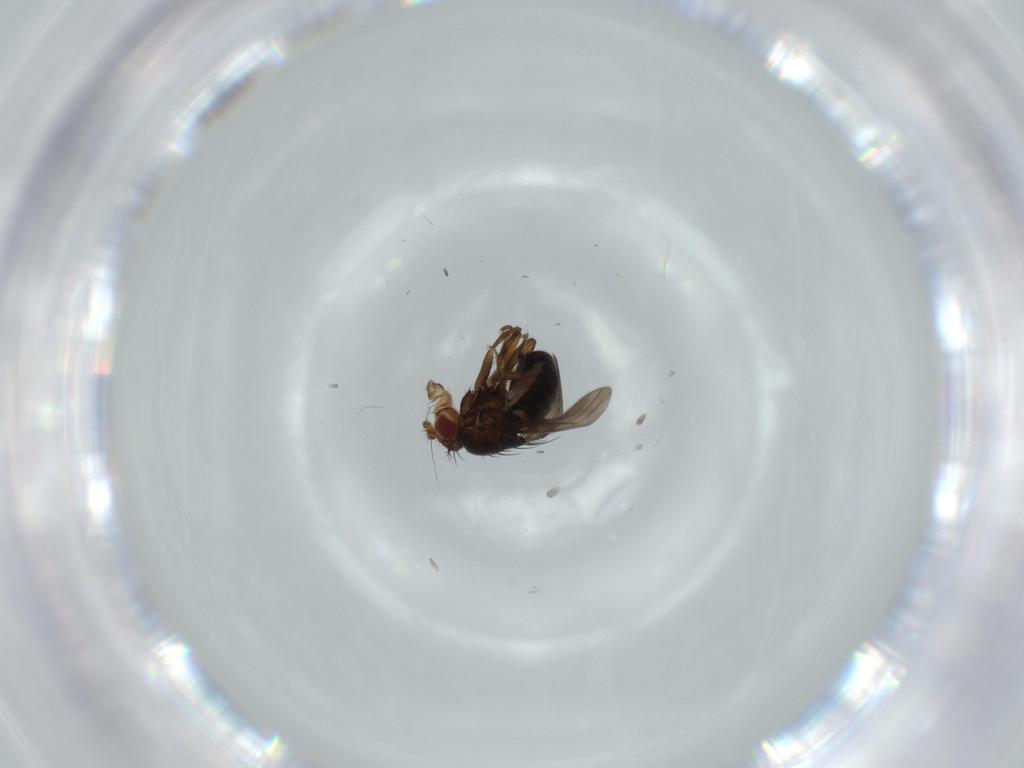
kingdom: Animalia
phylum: Arthropoda
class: Insecta
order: Diptera
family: Sphaeroceridae
